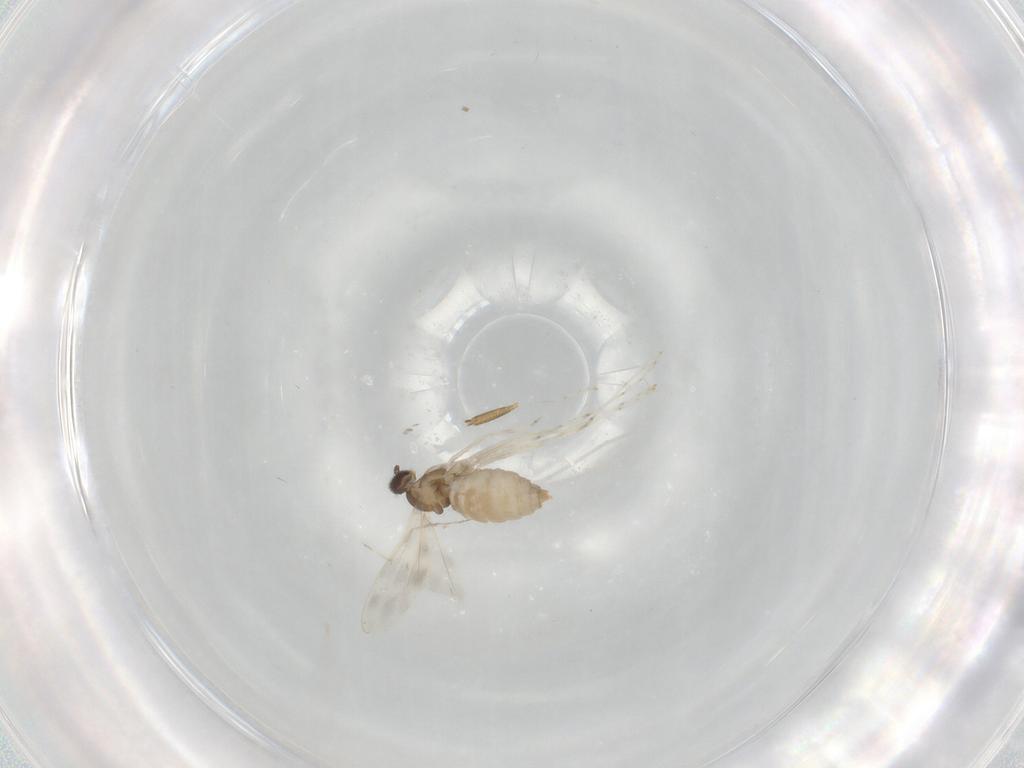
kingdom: Animalia
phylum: Arthropoda
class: Insecta
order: Diptera
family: Cecidomyiidae
